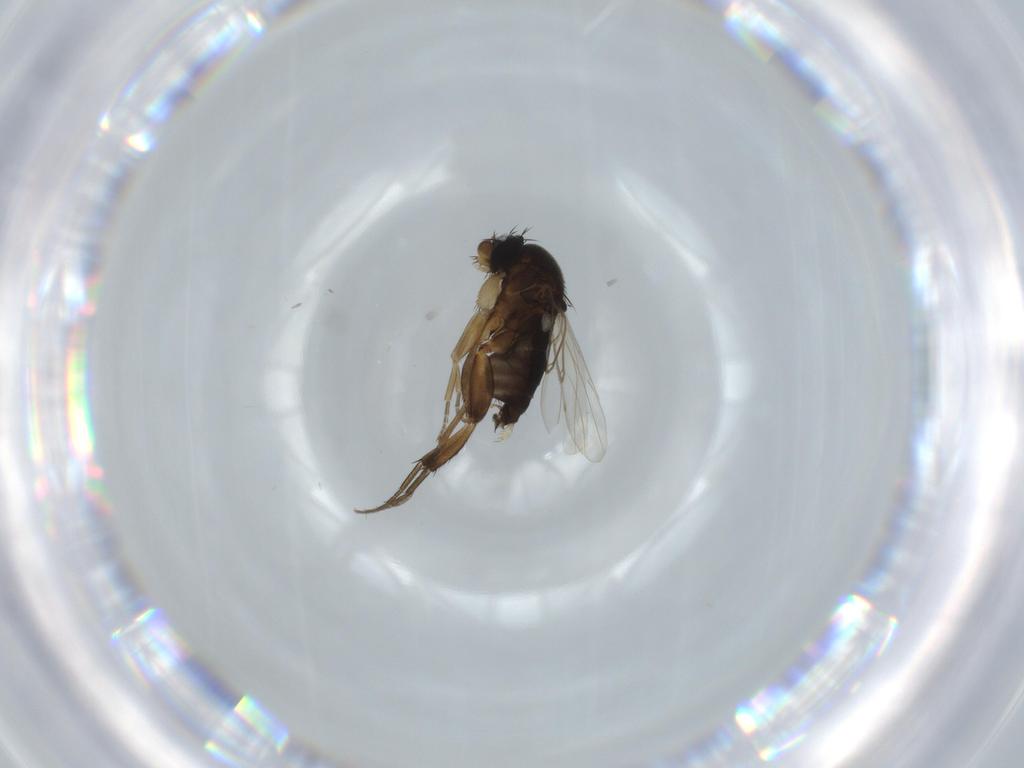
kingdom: Animalia
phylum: Arthropoda
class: Insecta
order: Diptera
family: Phoridae
